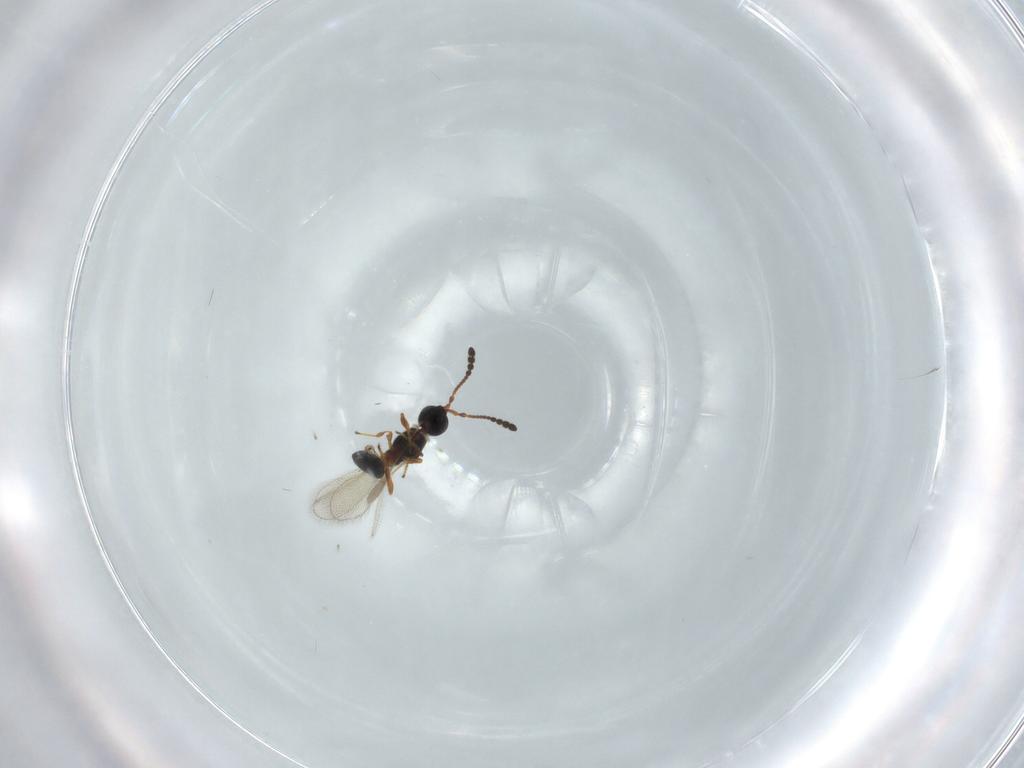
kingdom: Animalia
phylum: Arthropoda
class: Insecta
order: Hymenoptera
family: Diapriidae
